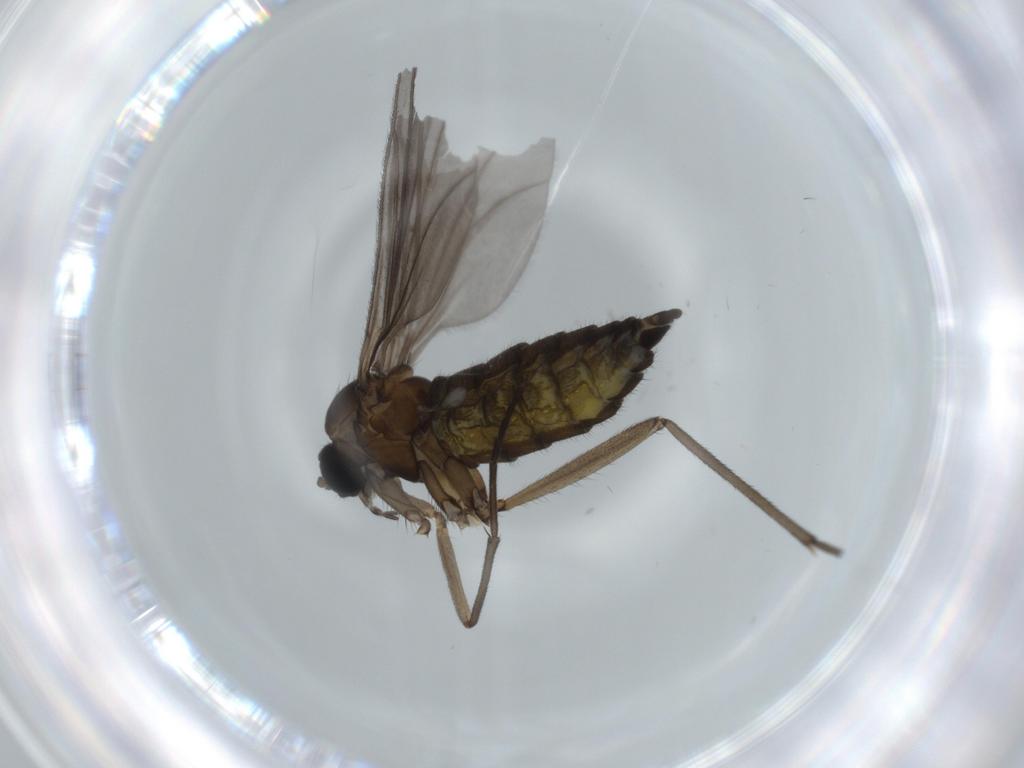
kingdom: Animalia
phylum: Arthropoda
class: Insecta
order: Diptera
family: Sciaridae
